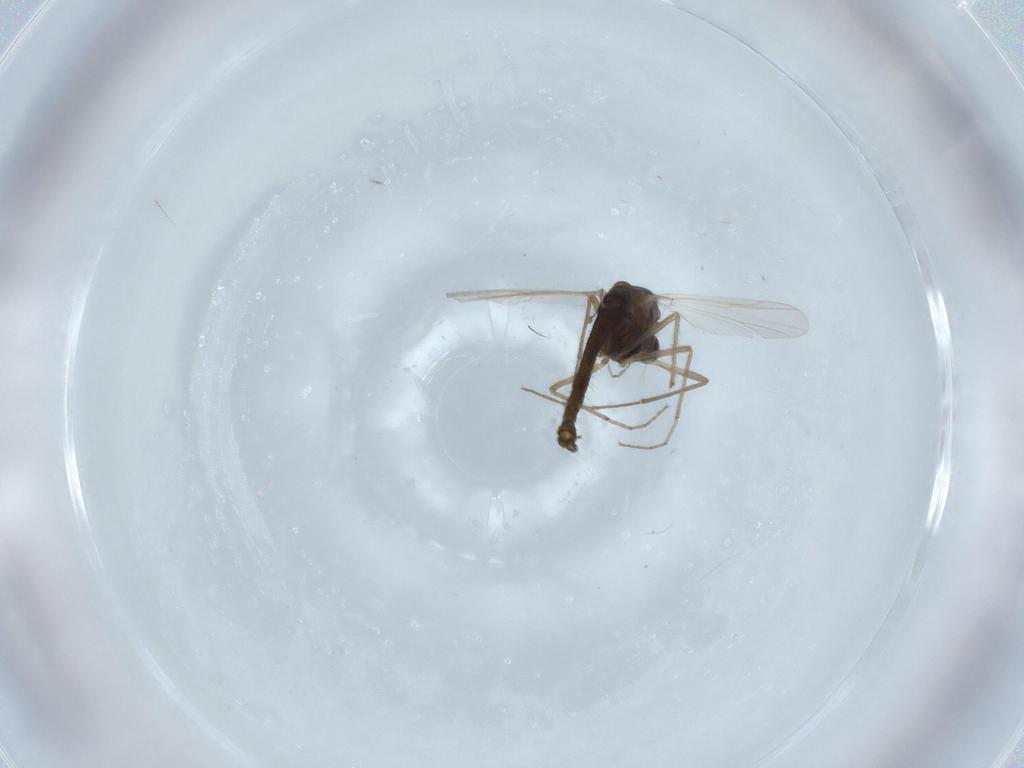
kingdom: Animalia
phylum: Arthropoda
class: Insecta
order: Diptera
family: Chironomidae
